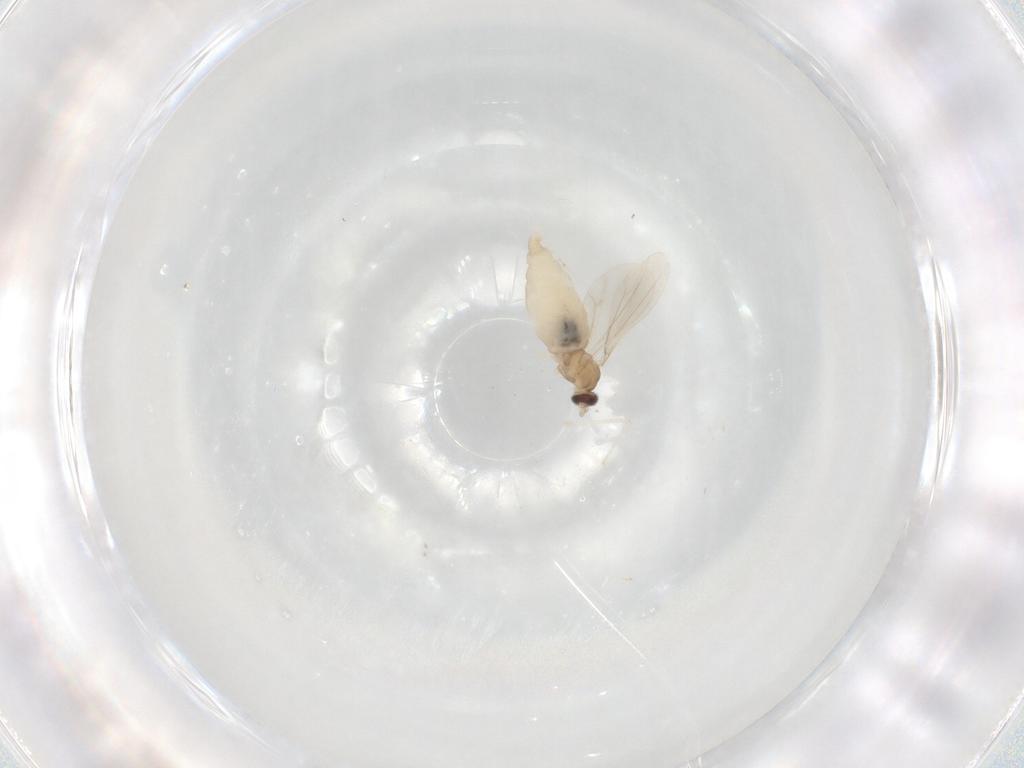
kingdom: Animalia
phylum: Arthropoda
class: Insecta
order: Diptera
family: Cecidomyiidae
